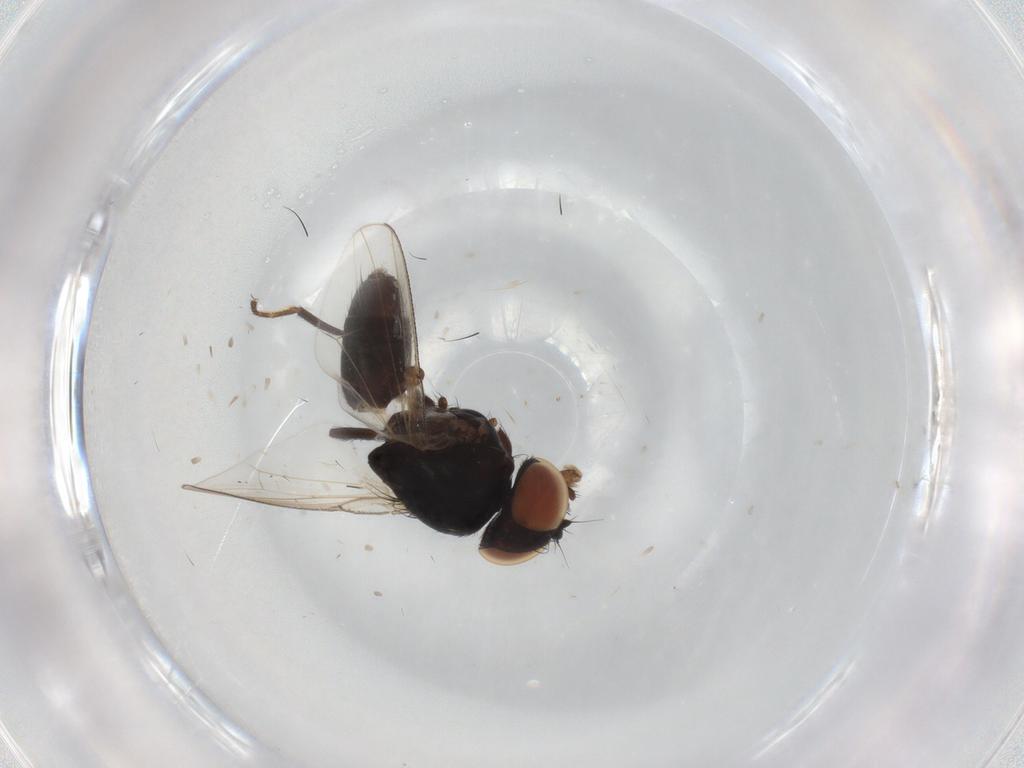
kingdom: Animalia
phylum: Arthropoda
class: Insecta
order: Diptera
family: Milichiidae
